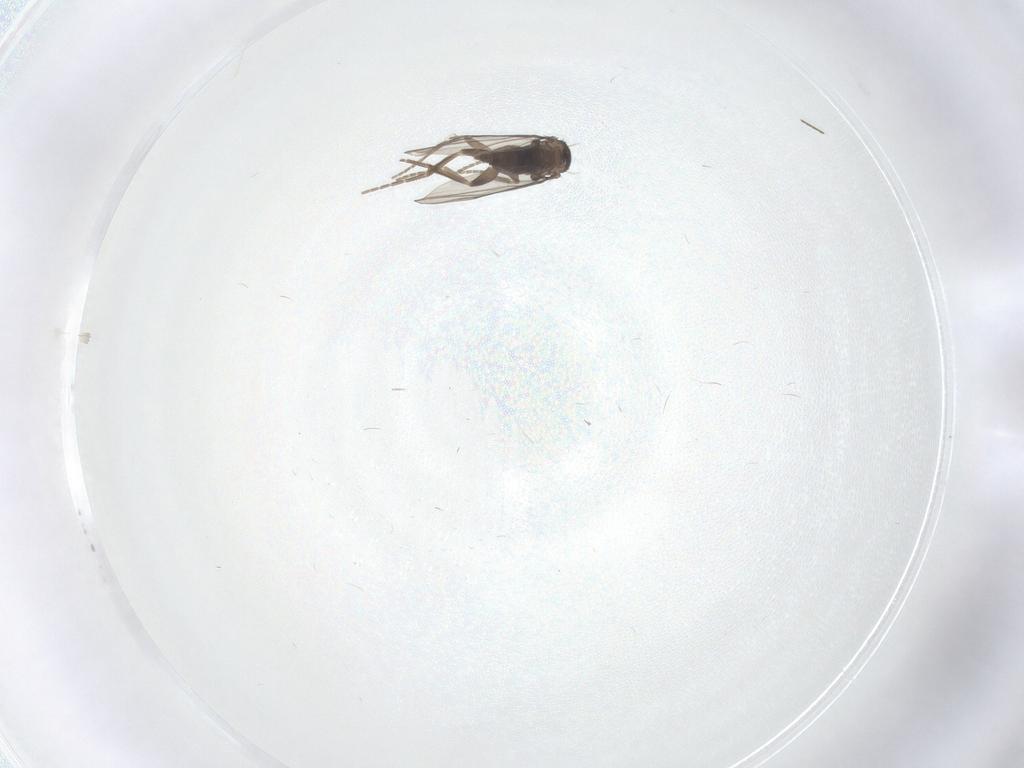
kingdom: Animalia
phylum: Arthropoda
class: Insecta
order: Diptera
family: Phoridae
